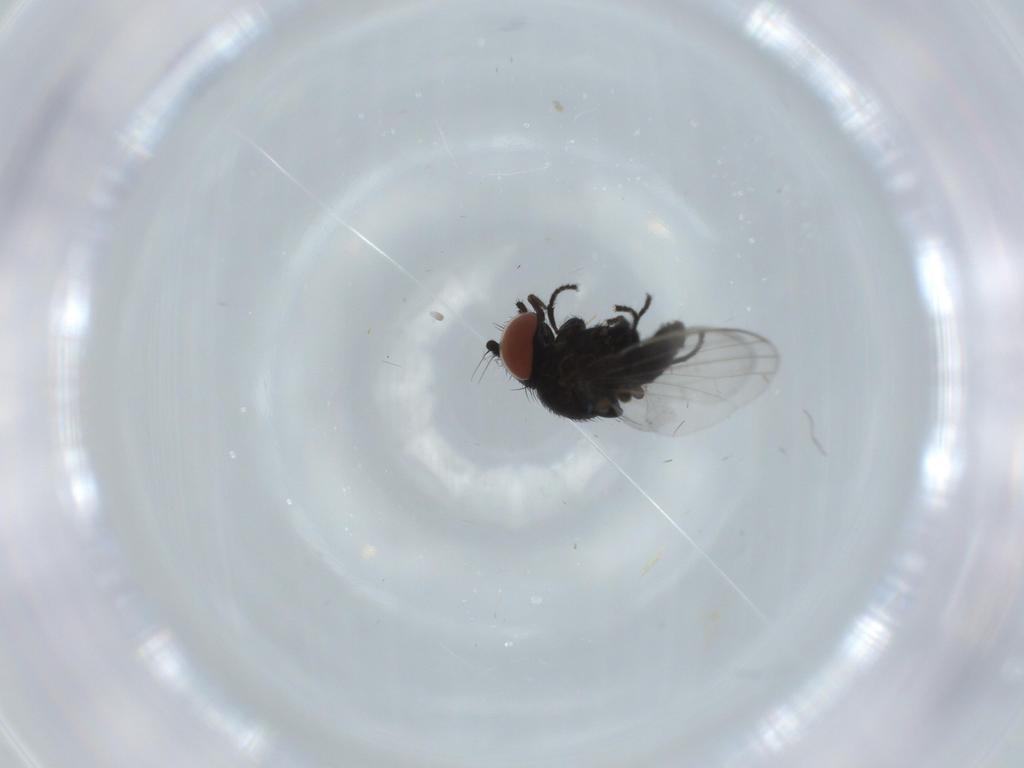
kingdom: Animalia
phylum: Arthropoda
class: Insecta
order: Diptera
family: Milichiidae
